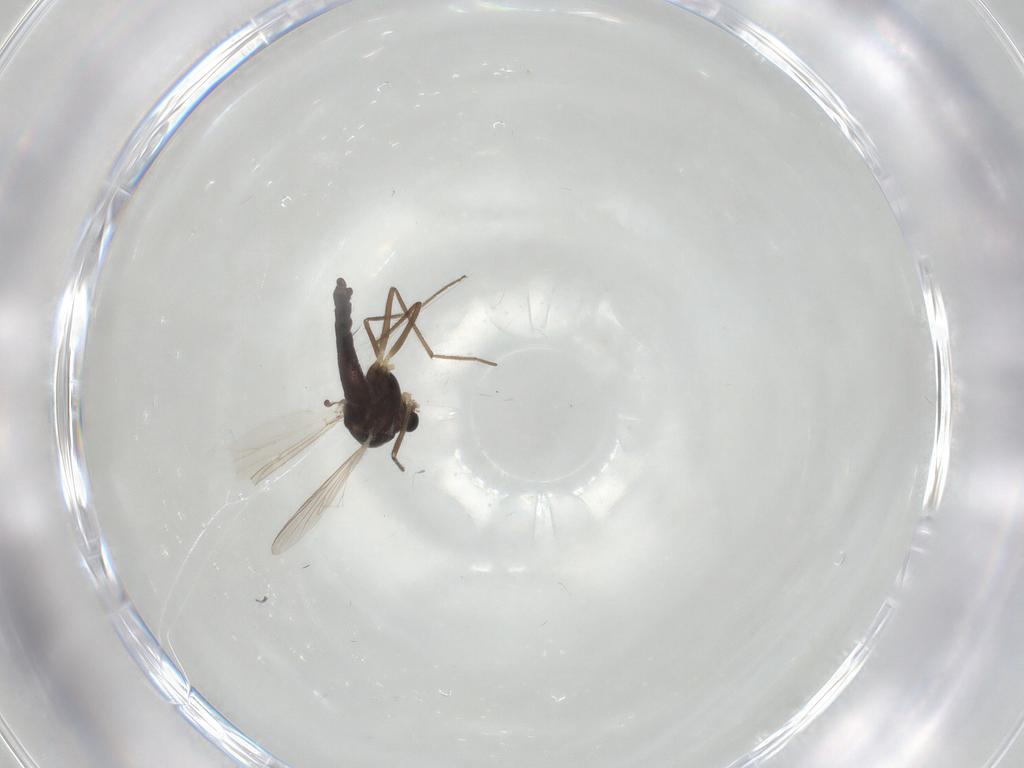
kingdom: Animalia
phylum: Arthropoda
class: Insecta
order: Diptera
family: Chironomidae
